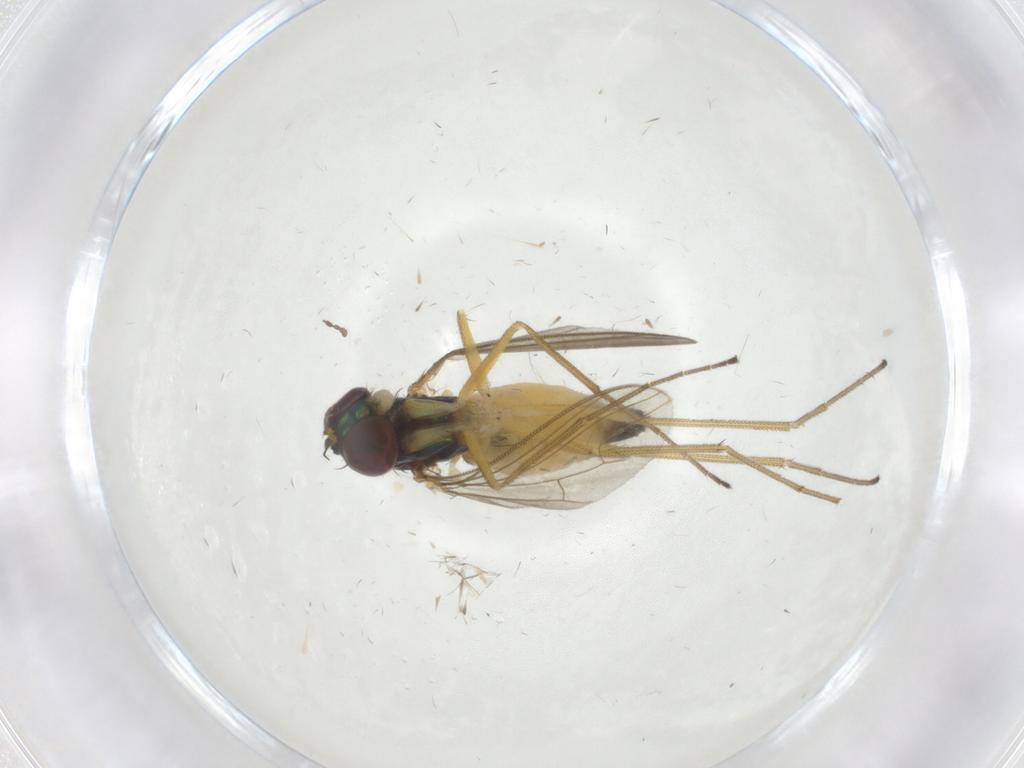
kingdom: Animalia
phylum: Arthropoda
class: Insecta
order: Diptera
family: Dolichopodidae
